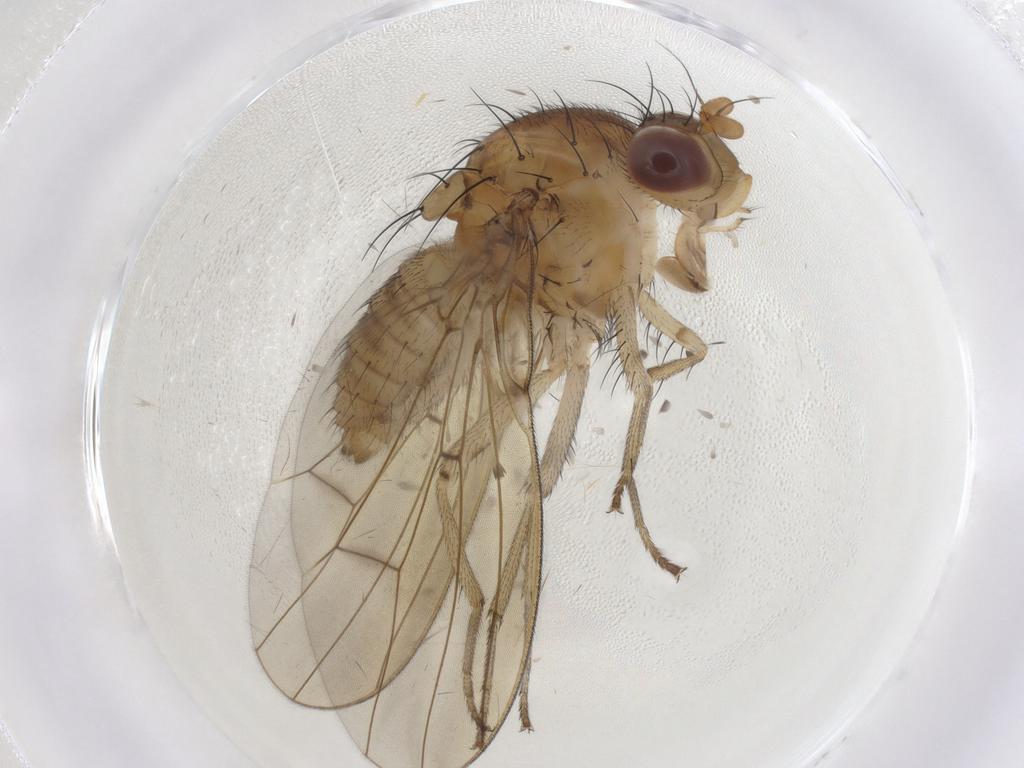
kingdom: Animalia
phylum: Arthropoda
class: Insecta
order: Diptera
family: Lauxaniidae
